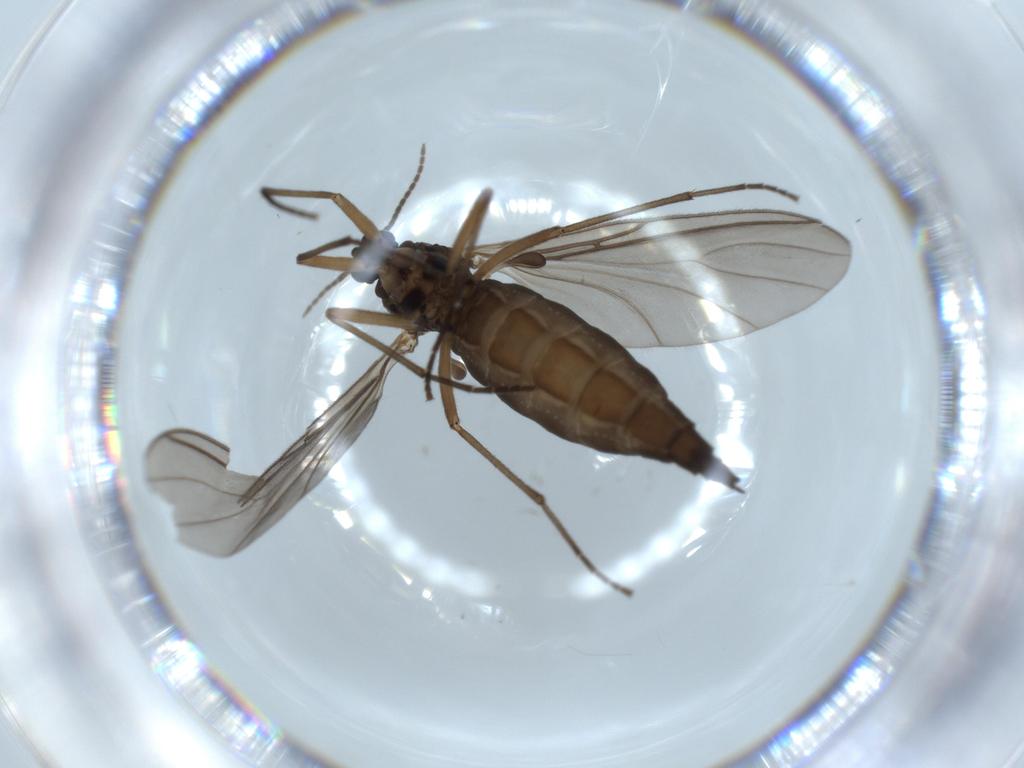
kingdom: Animalia
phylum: Arthropoda
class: Insecta
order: Diptera
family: Sciaridae
